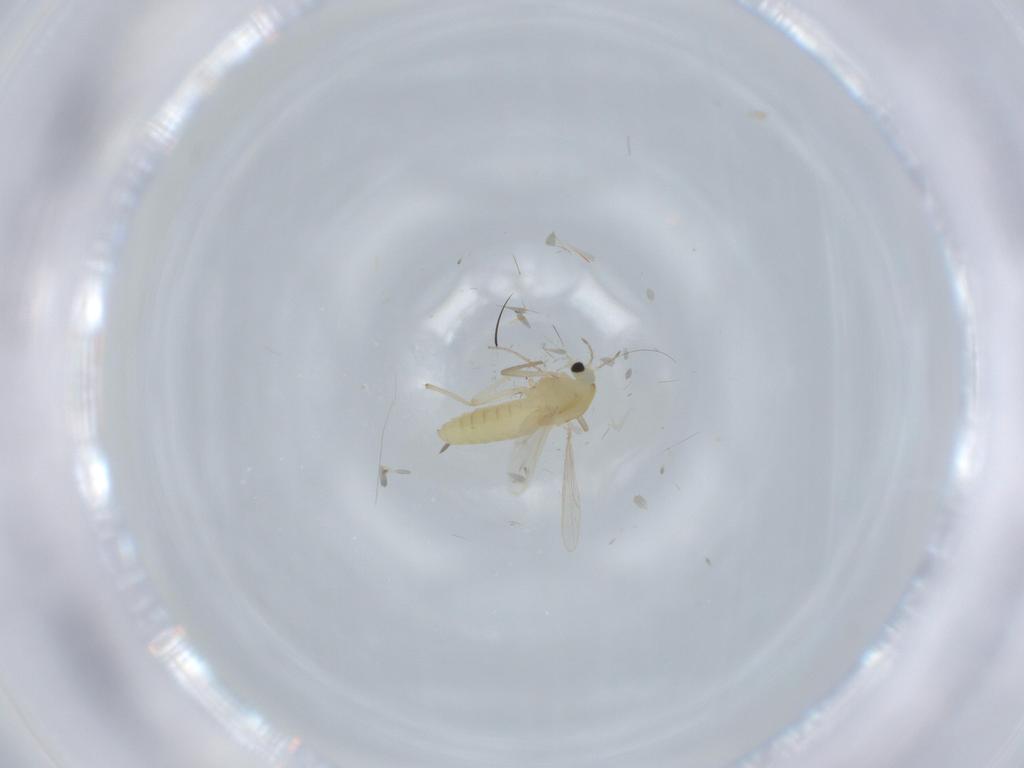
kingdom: Animalia
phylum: Arthropoda
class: Insecta
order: Diptera
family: Chironomidae
